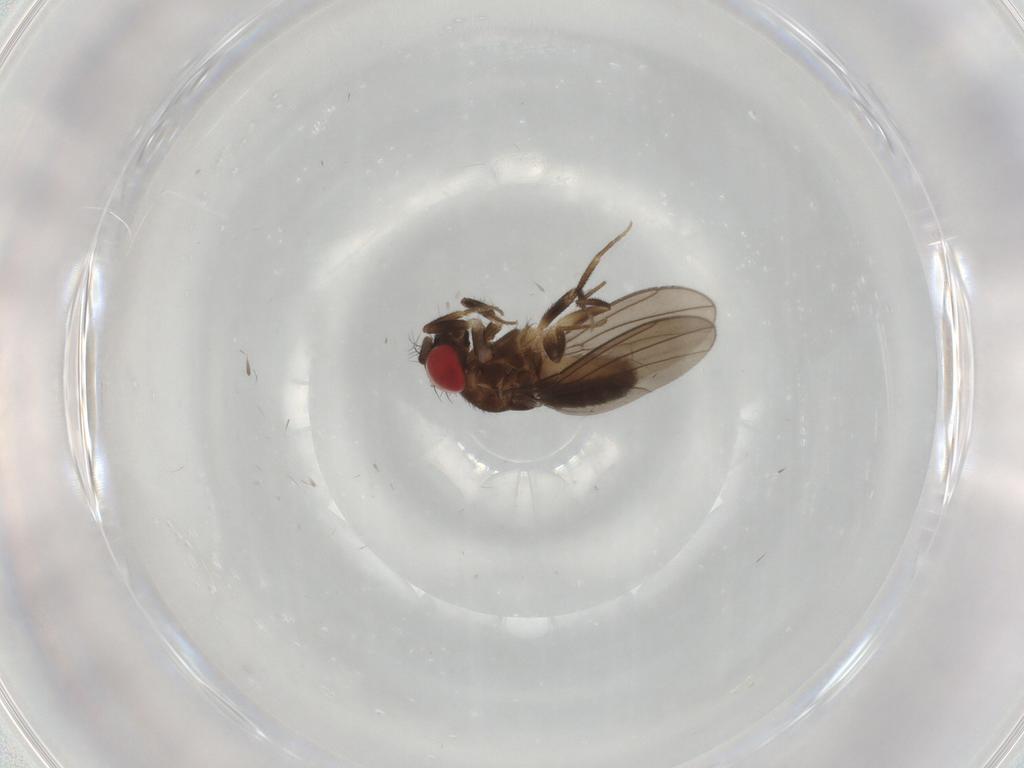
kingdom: Animalia
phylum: Arthropoda
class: Insecta
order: Diptera
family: Drosophilidae
